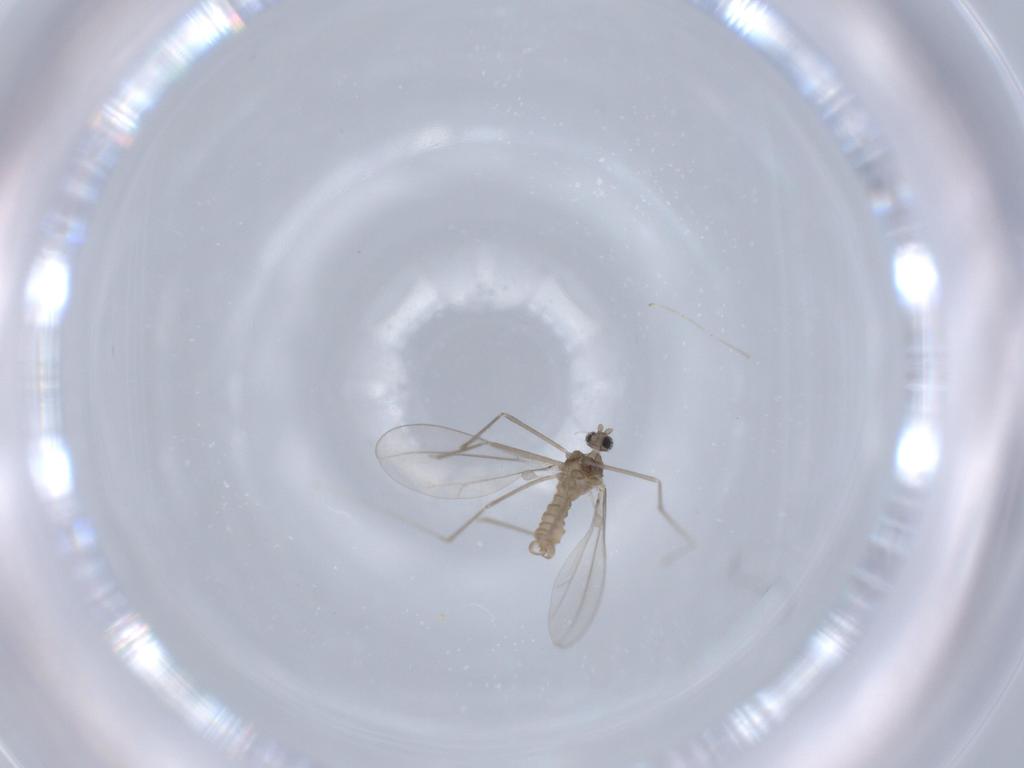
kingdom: Animalia
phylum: Arthropoda
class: Insecta
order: Diptera
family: Cecidomyiidae
